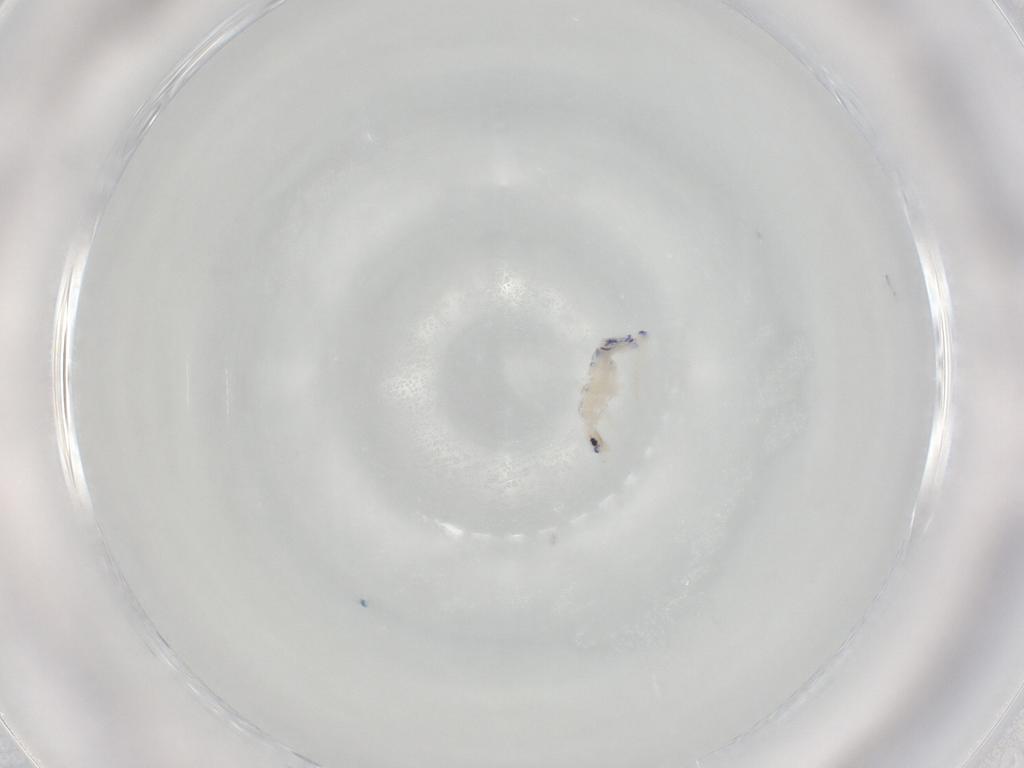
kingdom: Animalia
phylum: Arthropoda
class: Collembola
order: Entomobryomorpha
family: Entomobryidae
